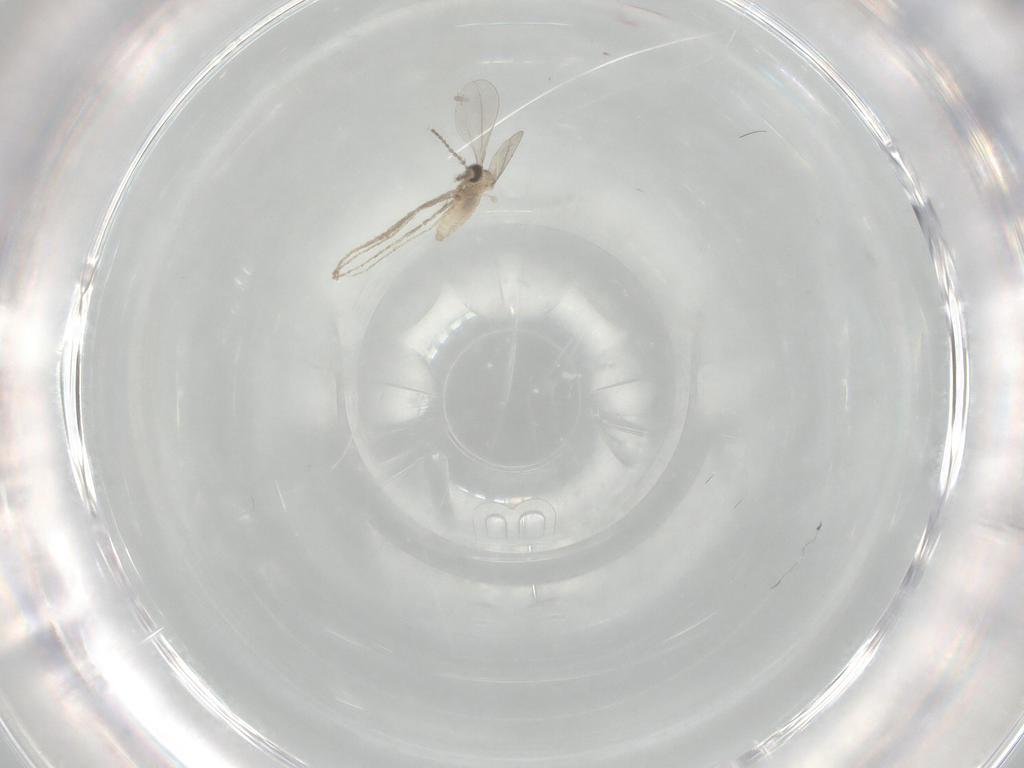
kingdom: Animalia
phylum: Arthropoda
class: Insecta
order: Diptera
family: Cecidomyiidae
